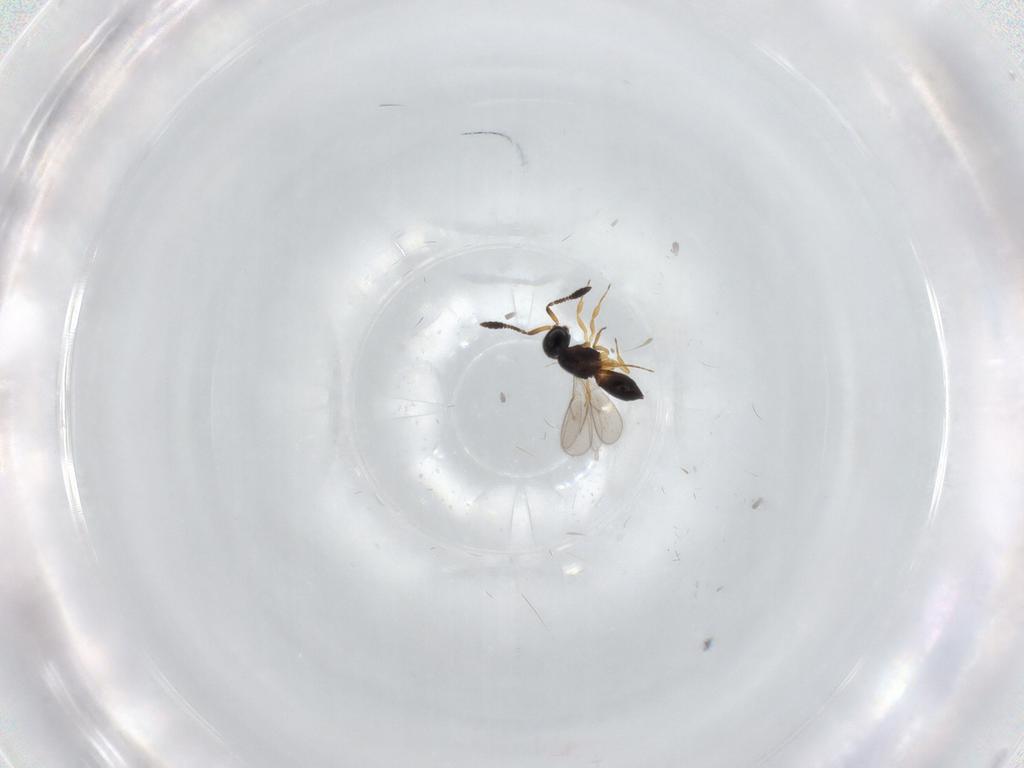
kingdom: Animalia
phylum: Arthropoda
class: Insecta
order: Hymenoptera
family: Scelionidae
